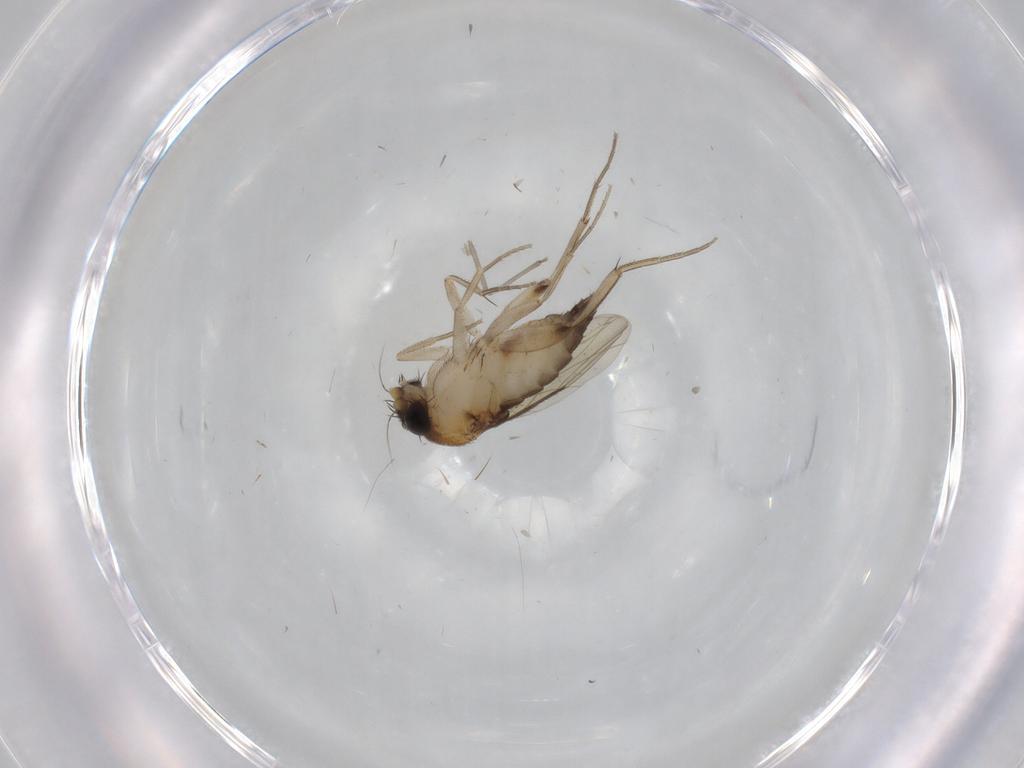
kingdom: Animalia
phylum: Arthropoda
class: Insecta
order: Diptera
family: Phoridae
